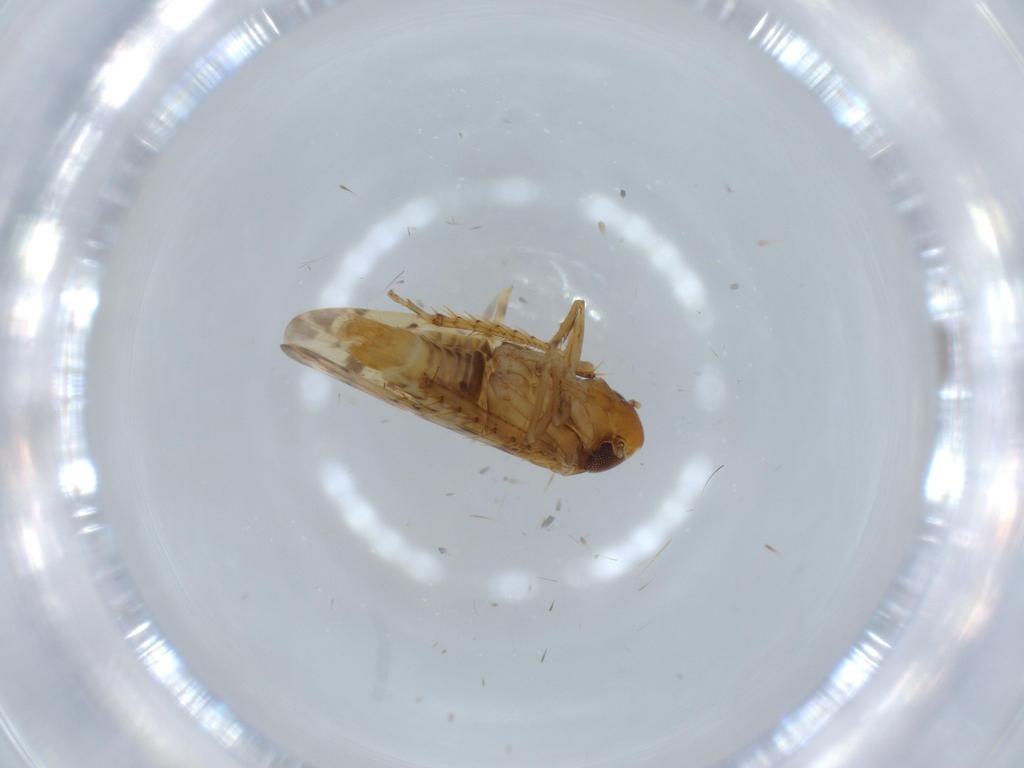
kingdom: Animalia
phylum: Arthropoda
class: Insecta
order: Hemiptera
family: Cicadellidae
